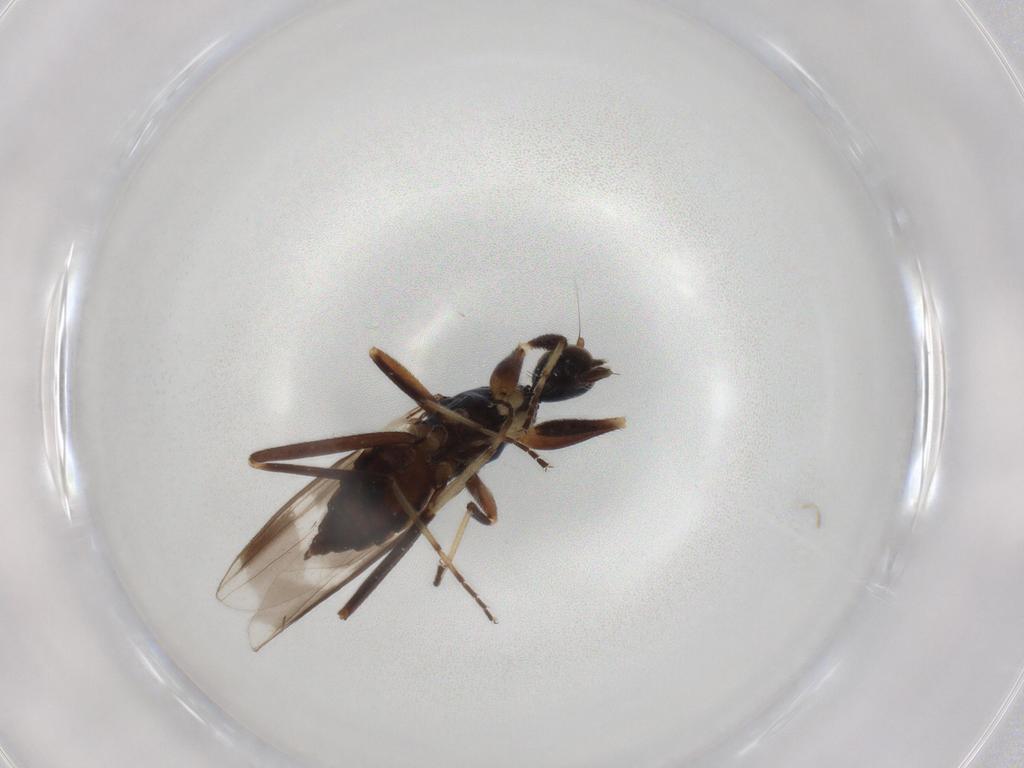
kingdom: Animalia
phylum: Arthropoda
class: Insecta
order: Diptera
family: Hybotidae
